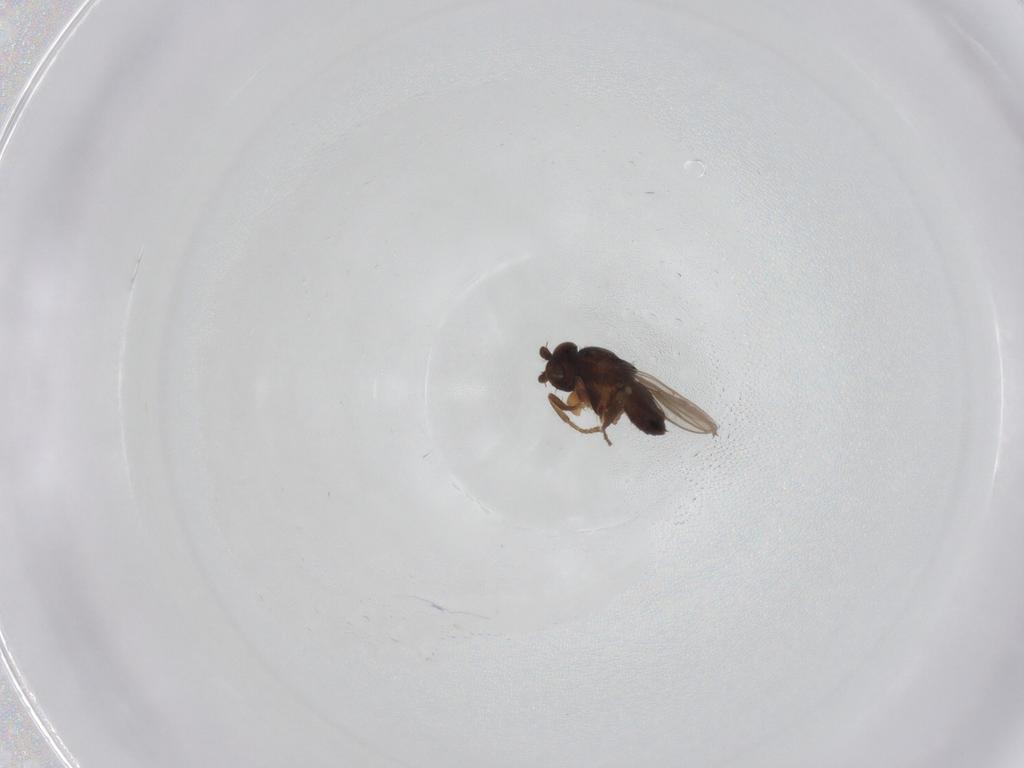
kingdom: Animalia
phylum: Arthropoda
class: Insecta
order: Diptera
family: Sphaeroceridae
